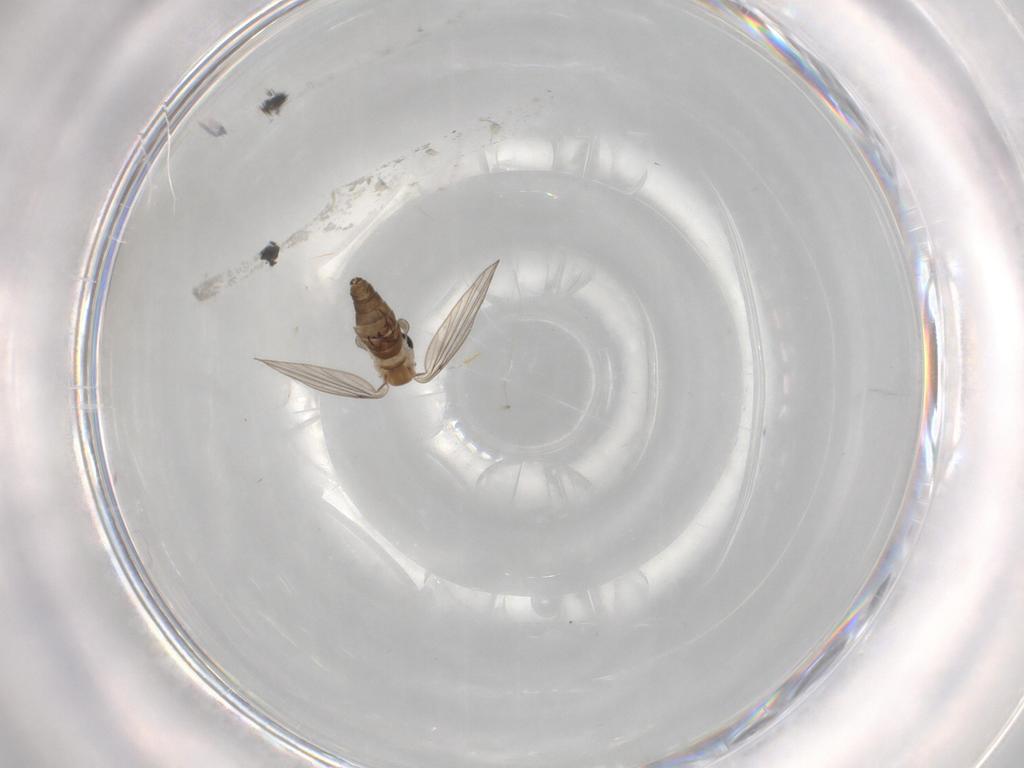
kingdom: Animalia
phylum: Arthropoda
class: Insecta
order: Diptera
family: Psychodidae
